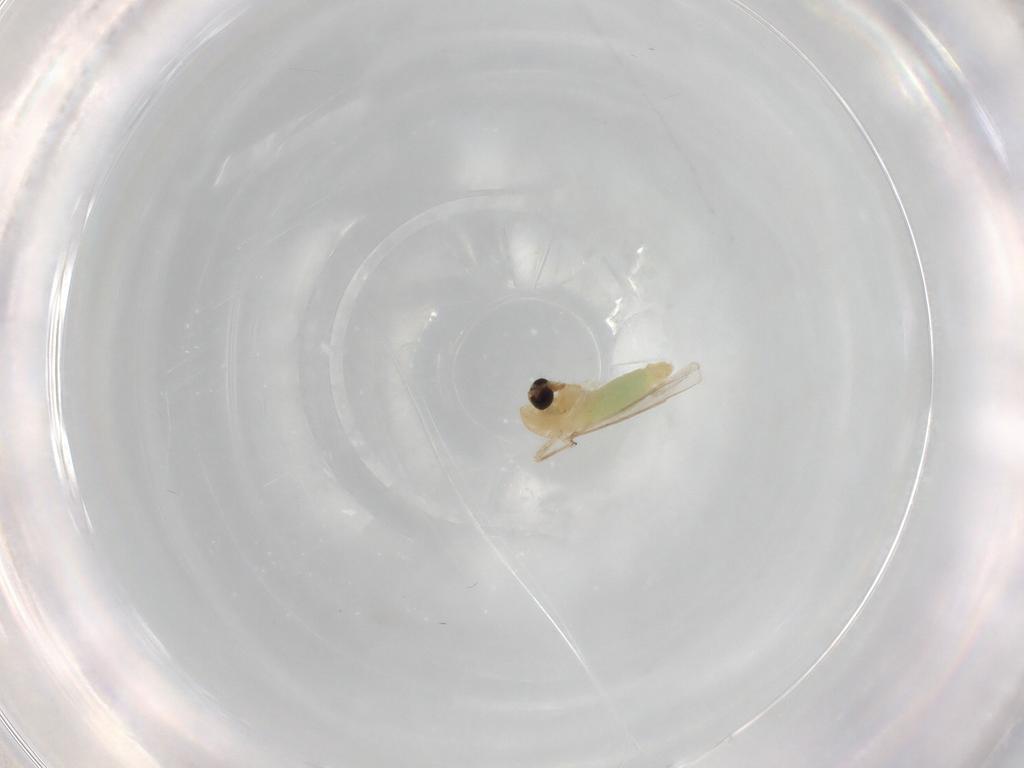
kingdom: Animalia
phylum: Arthropoda
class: Insecta
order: Diptera
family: Chironomidae
